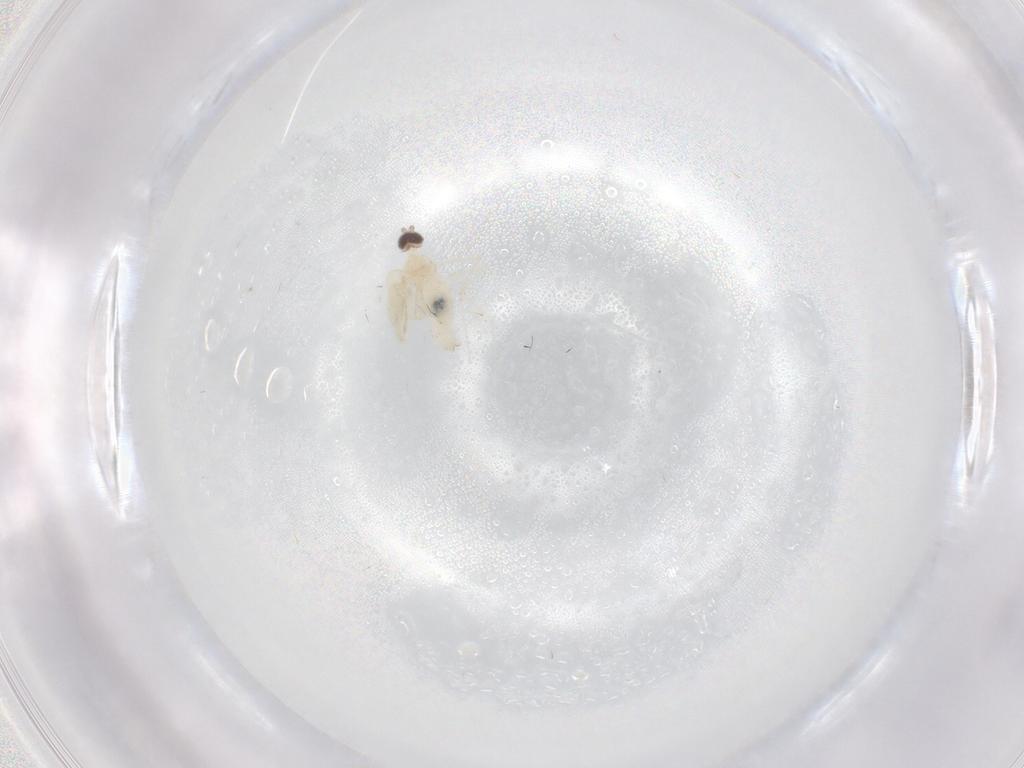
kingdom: Animalia
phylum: Arthropoda
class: Insecta
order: Diptera
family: Chironomidae
